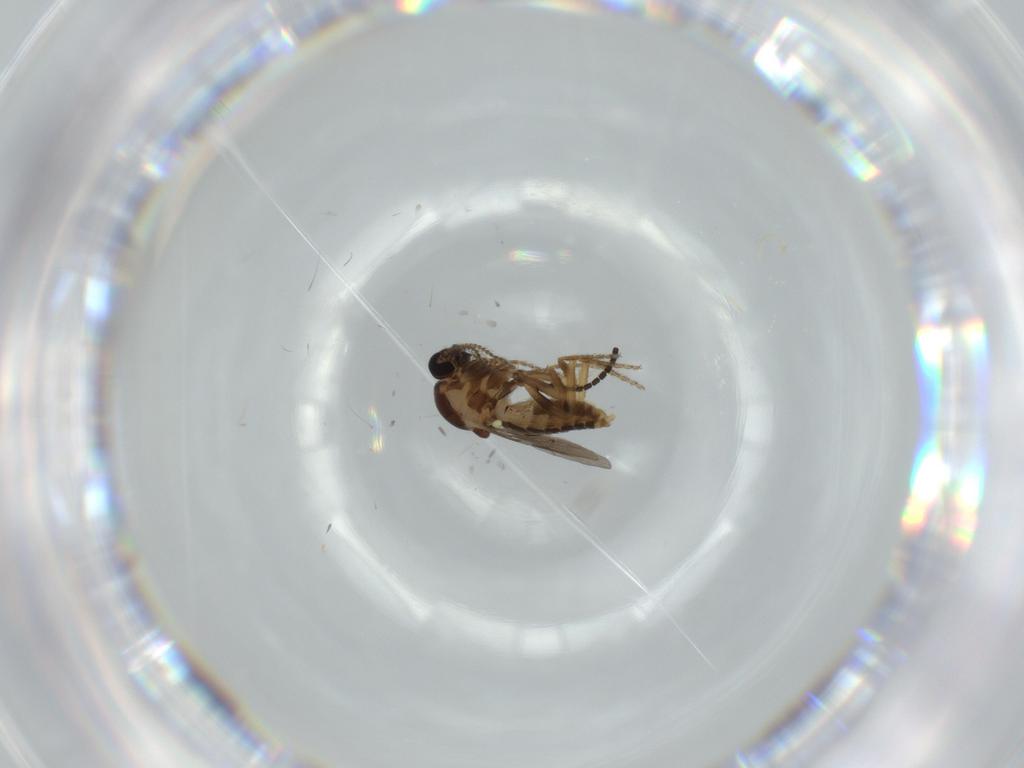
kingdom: Animalia
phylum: Arthropoda
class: Insecta
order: Diptera
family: Ceratopogonidae
